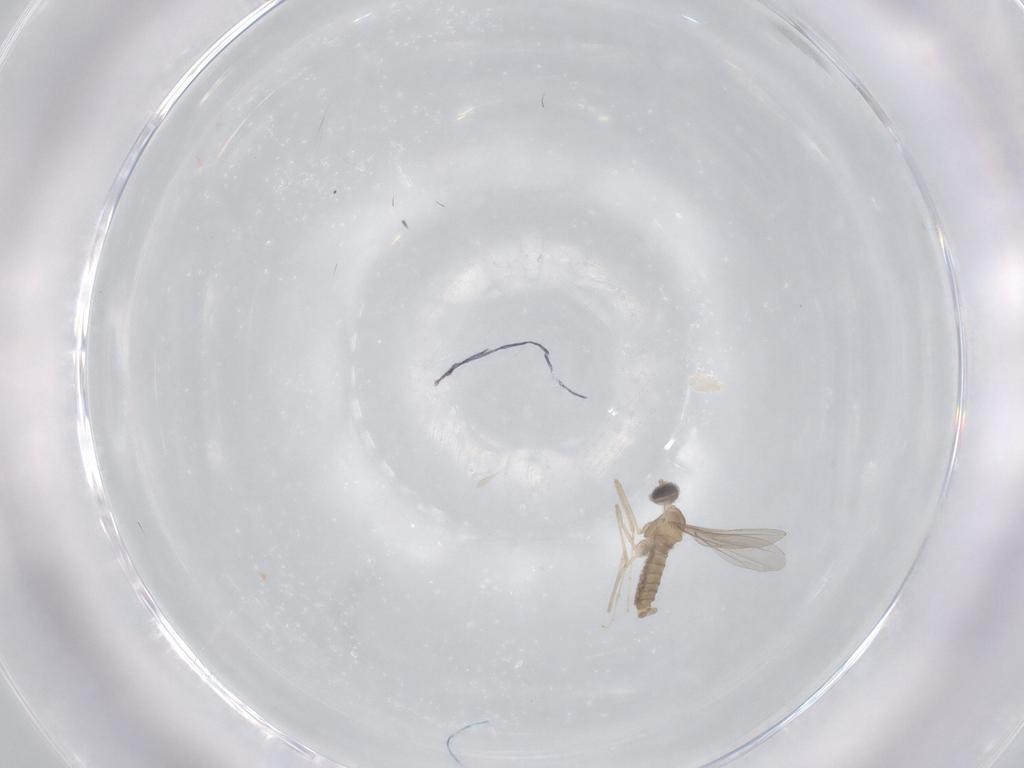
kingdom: Animalia
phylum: Arthropoda
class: Insecta
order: Diptera
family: Cecidomyiidae
